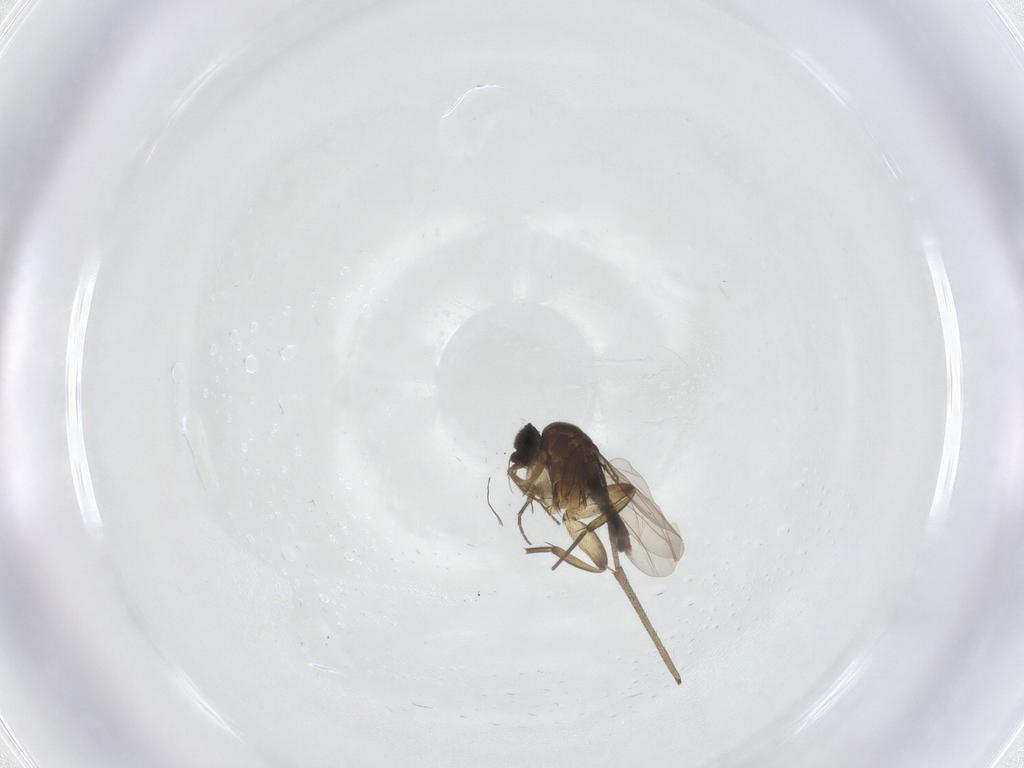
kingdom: Animalia
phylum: Arthropoda
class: Insecta
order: Diptera
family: Phoridae
